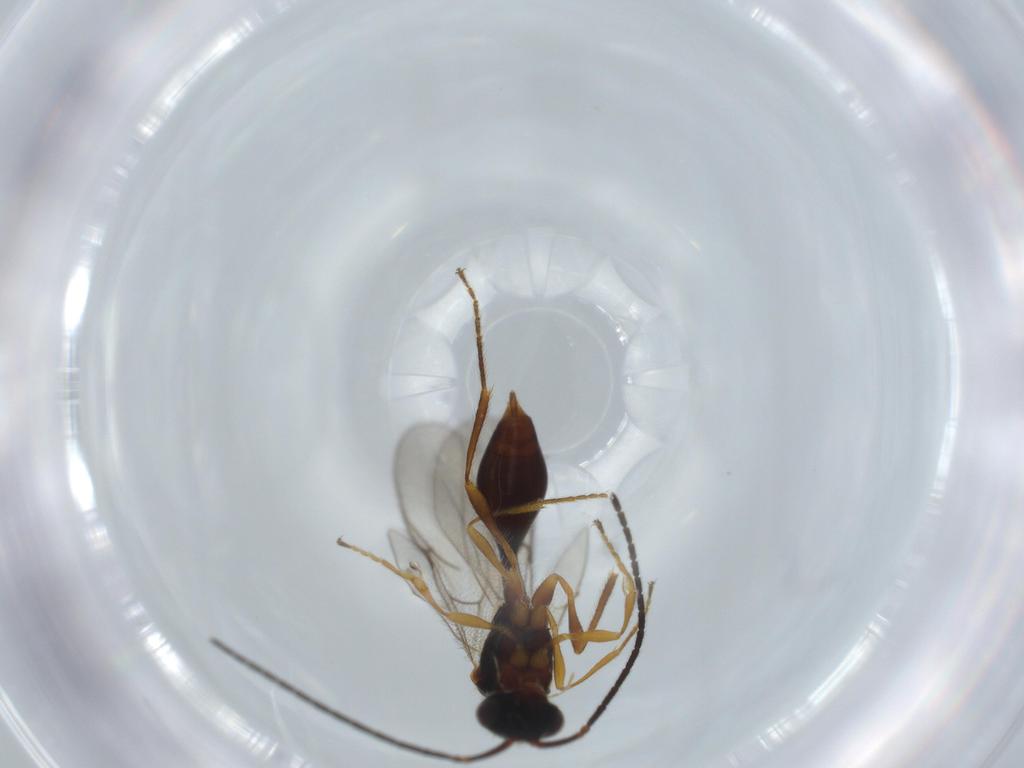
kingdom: Animalia
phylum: Arthropoda
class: Insecta
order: Hymenoptera
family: Diapriidae
